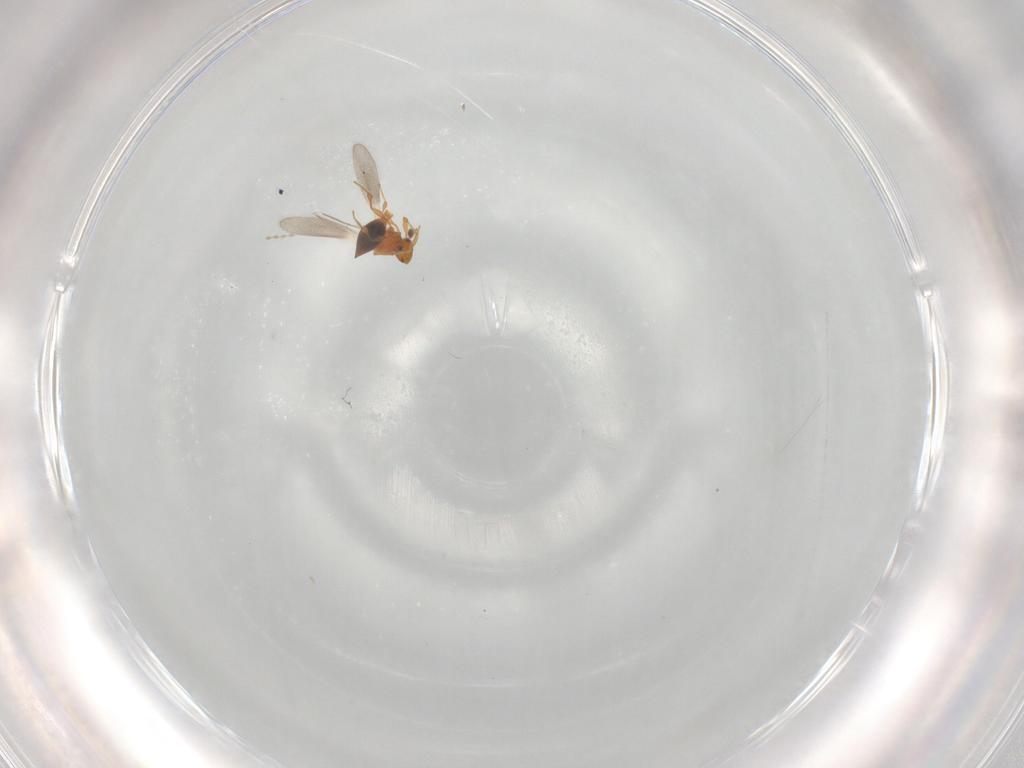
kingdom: Animalia
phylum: Arthropoda
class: Insecta
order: Hymenoptera
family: Platygastridae
